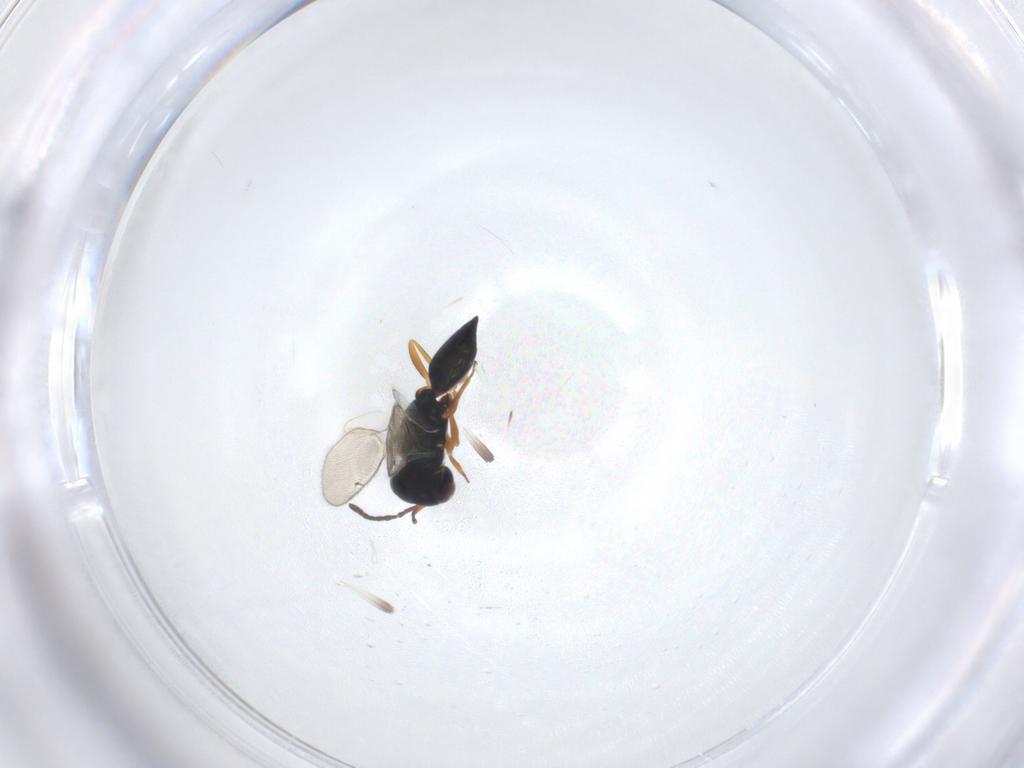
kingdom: Animalia
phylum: Arthropoda
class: Insecta
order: Hymenoptera
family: Pteromalidae
